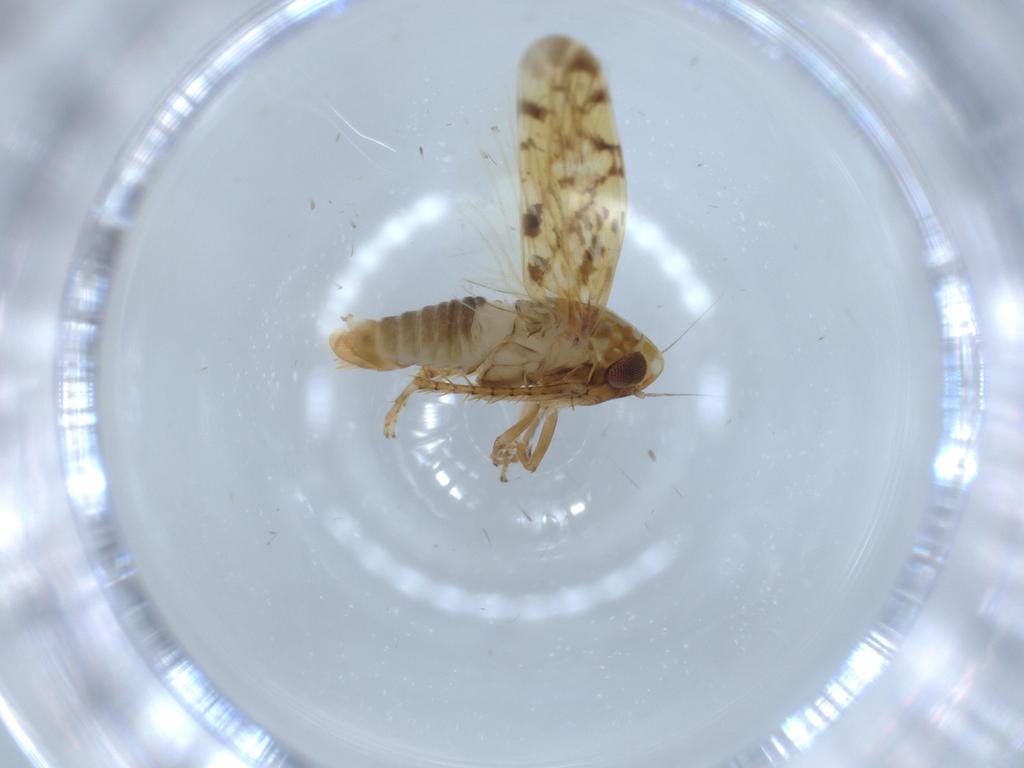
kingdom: Animalia
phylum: Arthropoda
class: Insecta
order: Hemiptera
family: Cicadellidae
